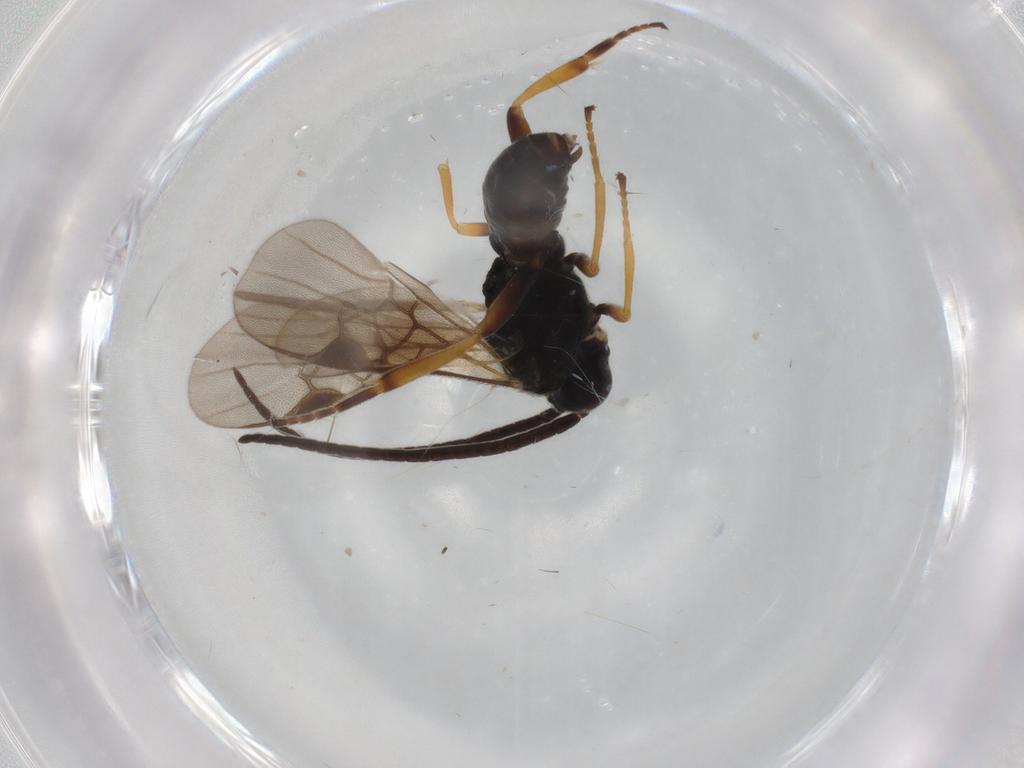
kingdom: Animalia
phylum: Arthropoda
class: Insecta
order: Hymenoptera
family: Braconidae
